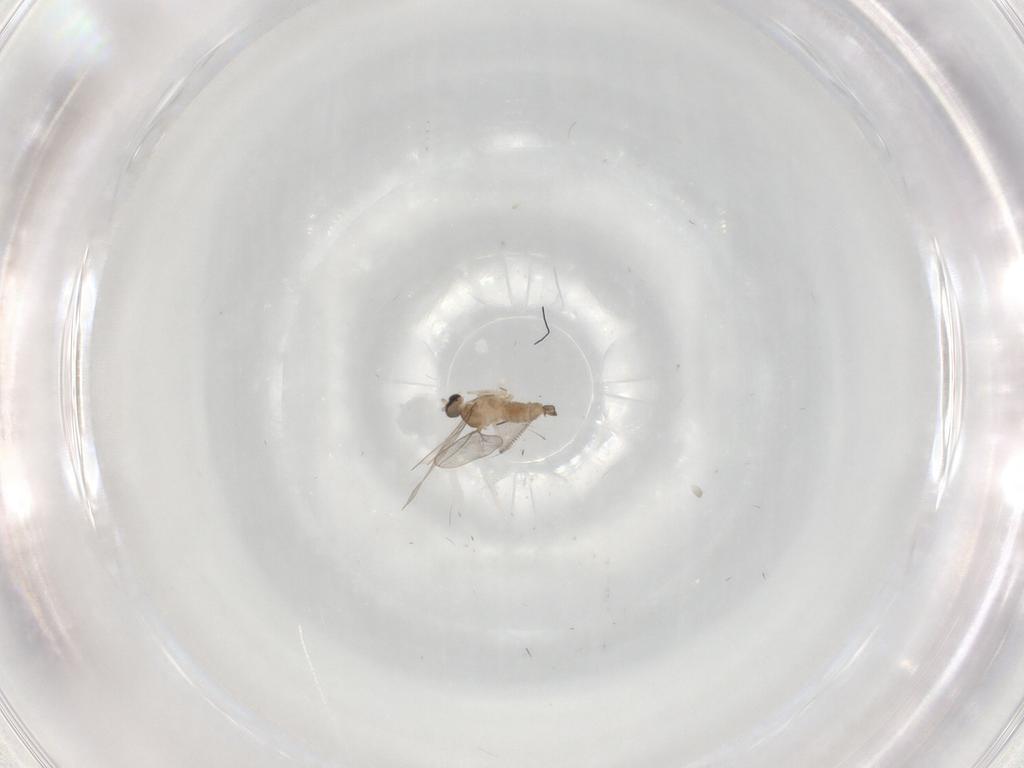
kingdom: Animalia
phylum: Arthropoda
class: Insecta
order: Diptera
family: Cecidomyiidae
